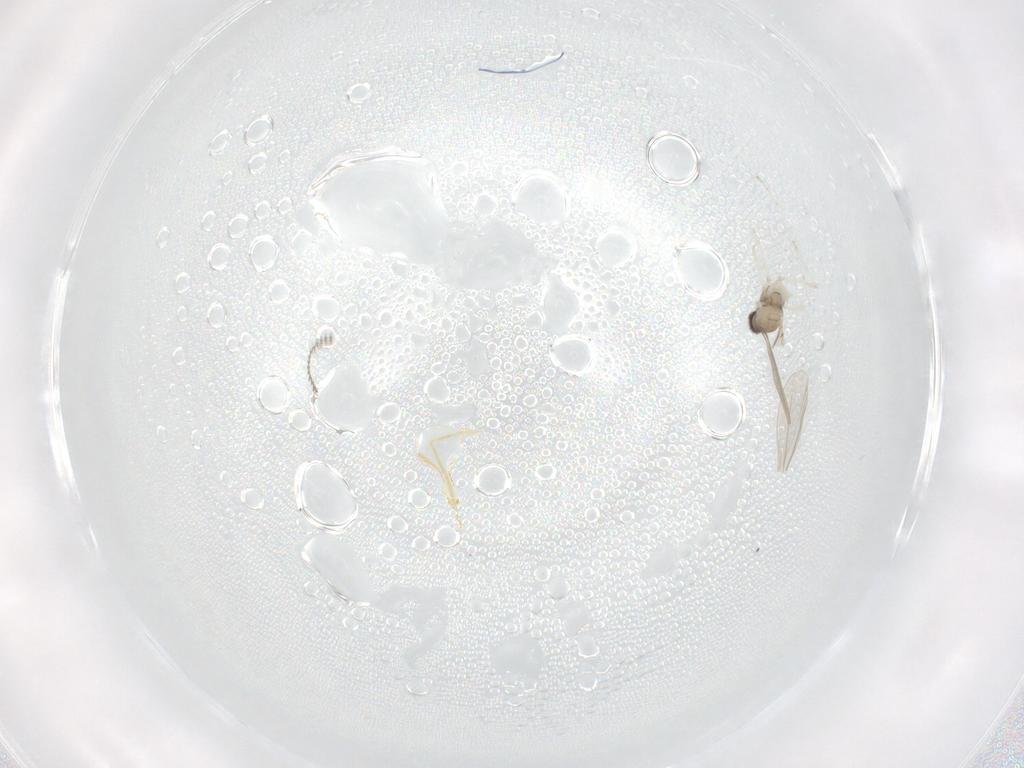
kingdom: Animalia
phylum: Arthropoda
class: Insecta
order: Diptera
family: Cecidomyiidae
